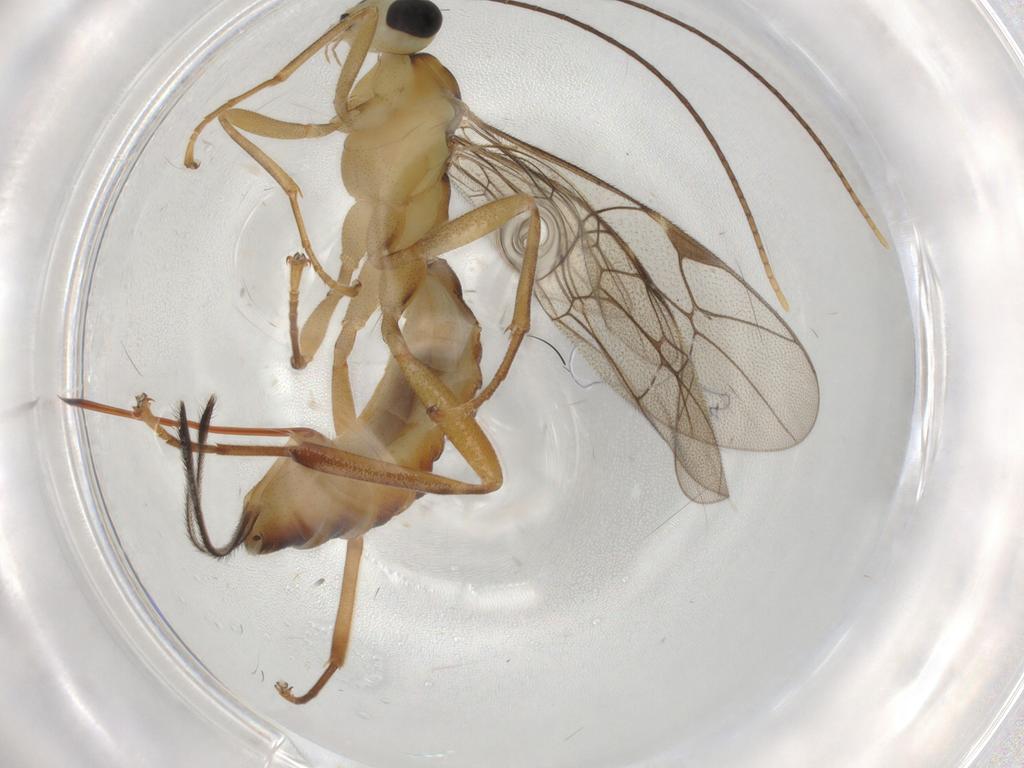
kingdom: Animalia
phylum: Arthropoda
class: Insecta
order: Hymenoptera
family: Ichneumonidae
